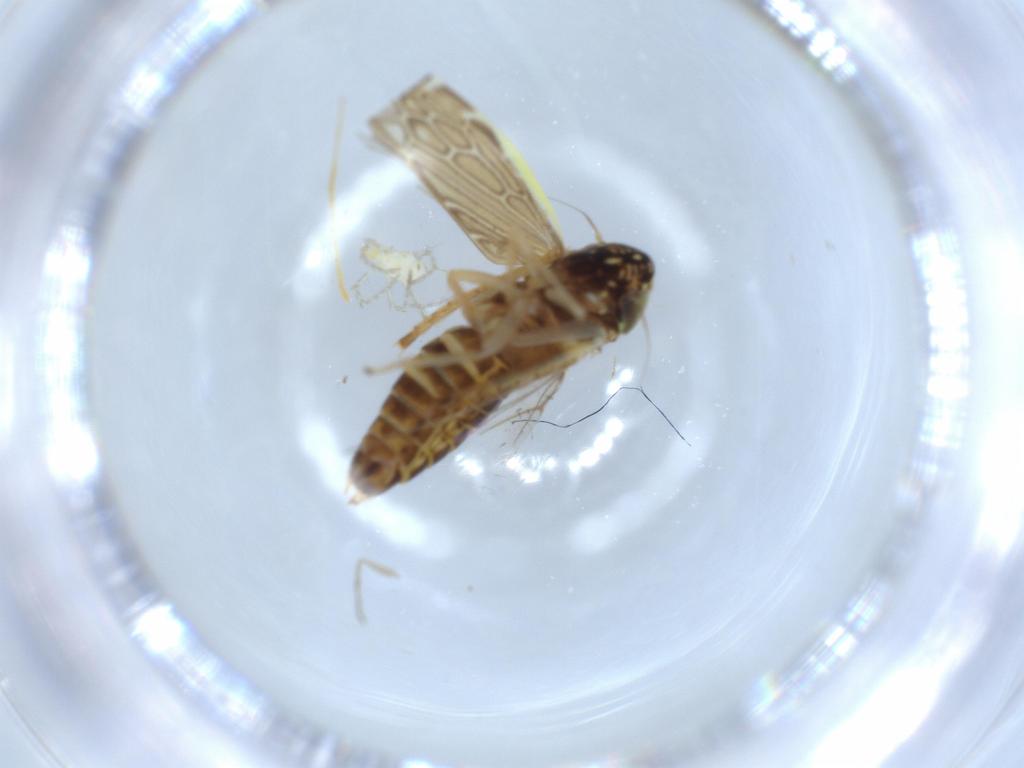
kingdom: Animalia
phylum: Arthropoda
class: Insecta
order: Hemiptera
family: Cicadellidae
